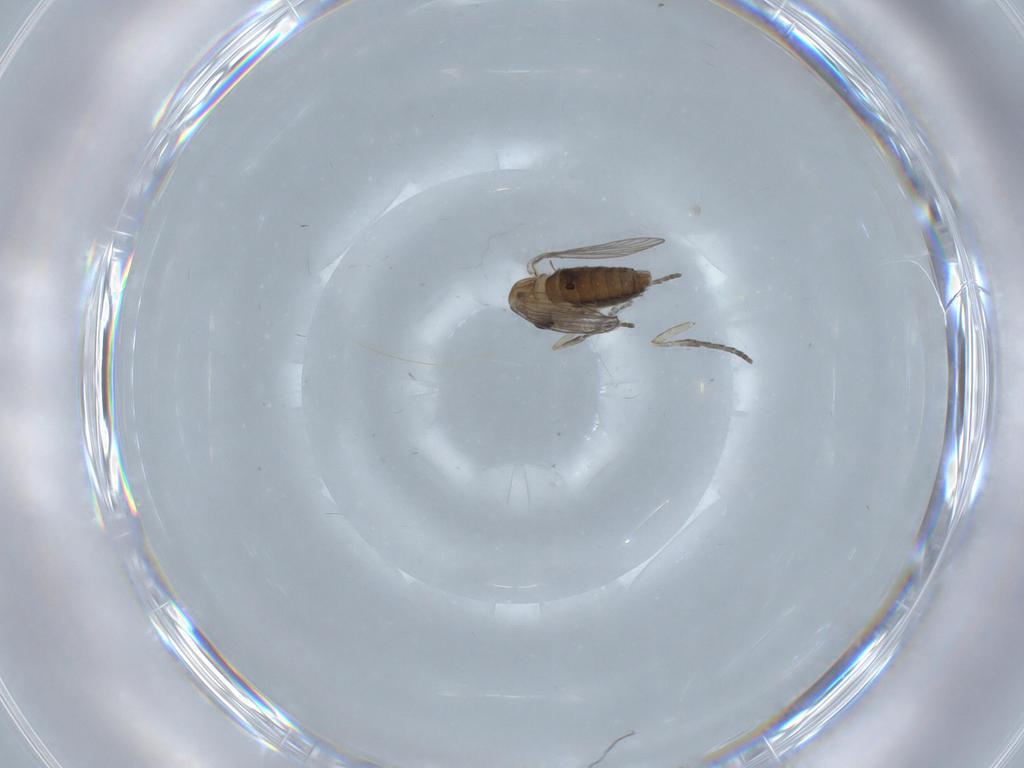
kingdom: Animalia
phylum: Arthropoda
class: Insecta
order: Diptera
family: Psychodidae
